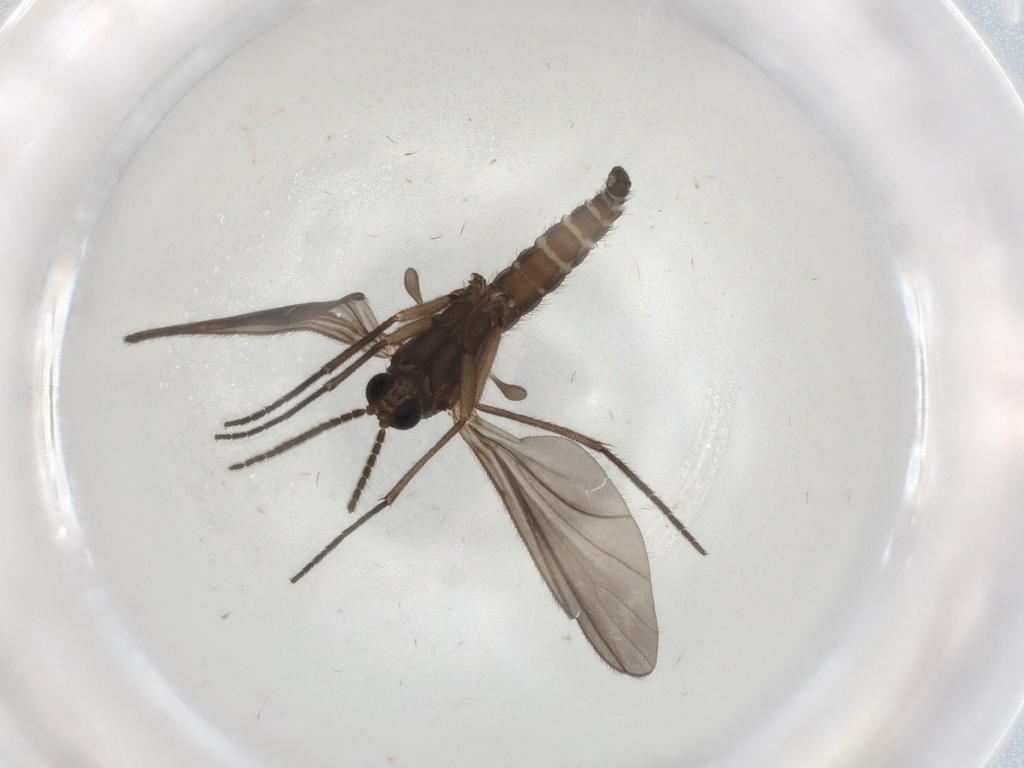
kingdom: Animalia
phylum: Arthropoda
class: Insecta
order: Diptera
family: Sciaridae
